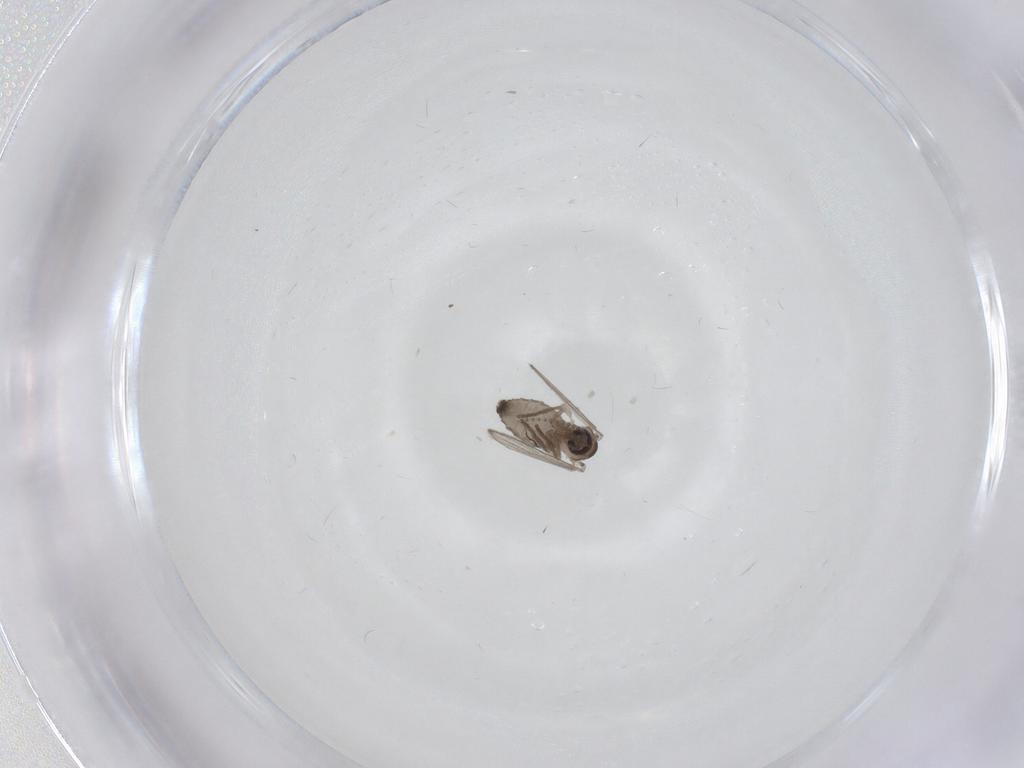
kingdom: Animalia
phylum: Arthropoda
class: Insecta
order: Diptera
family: Psychodidae
